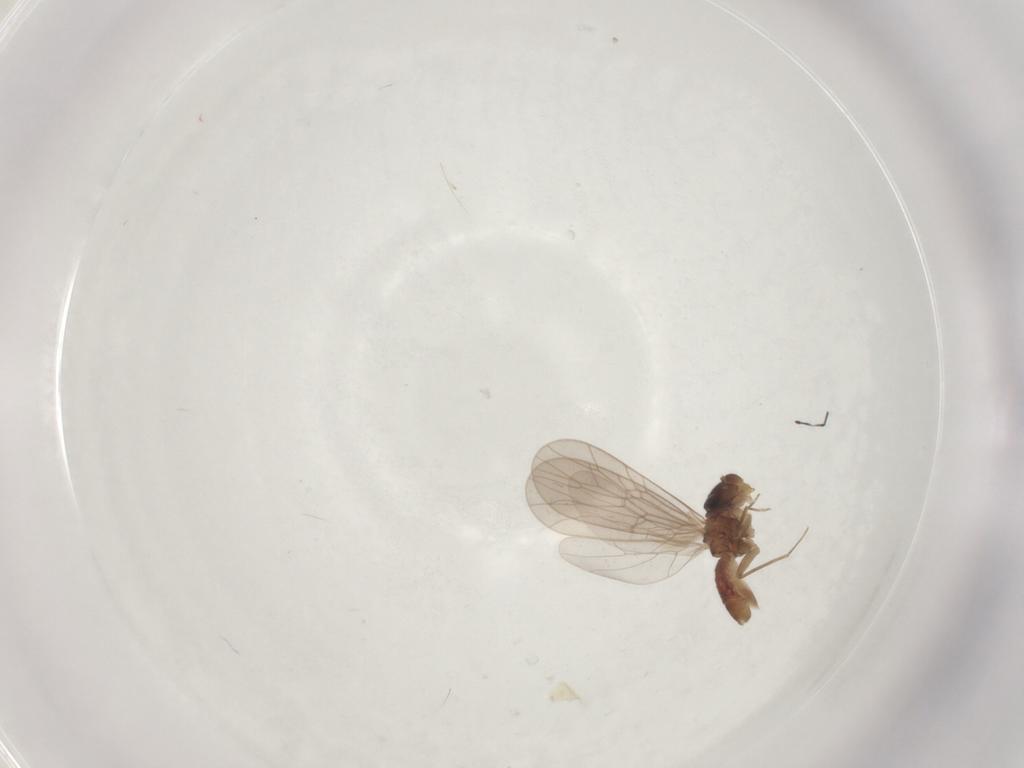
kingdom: Animalia
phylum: Arthropoda
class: Insecta
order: Psocodea
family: Lepidopsocidae
